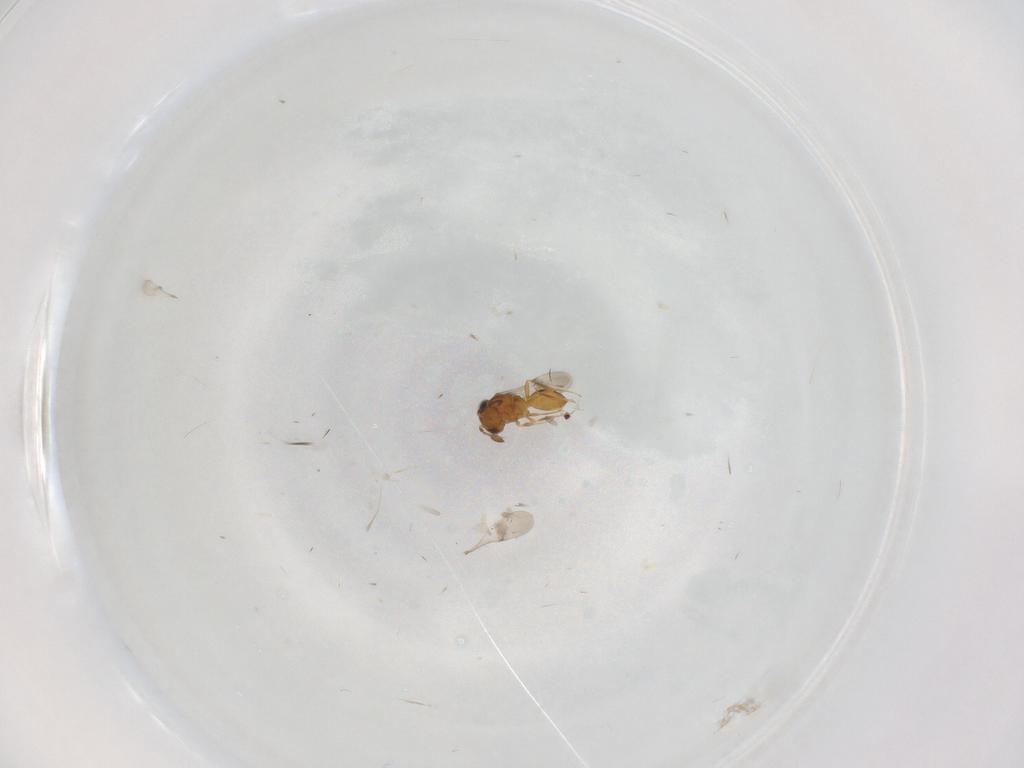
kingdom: Animalia
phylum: Arthropoda
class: Insecta
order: Hymenoptera
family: Scelionidae
